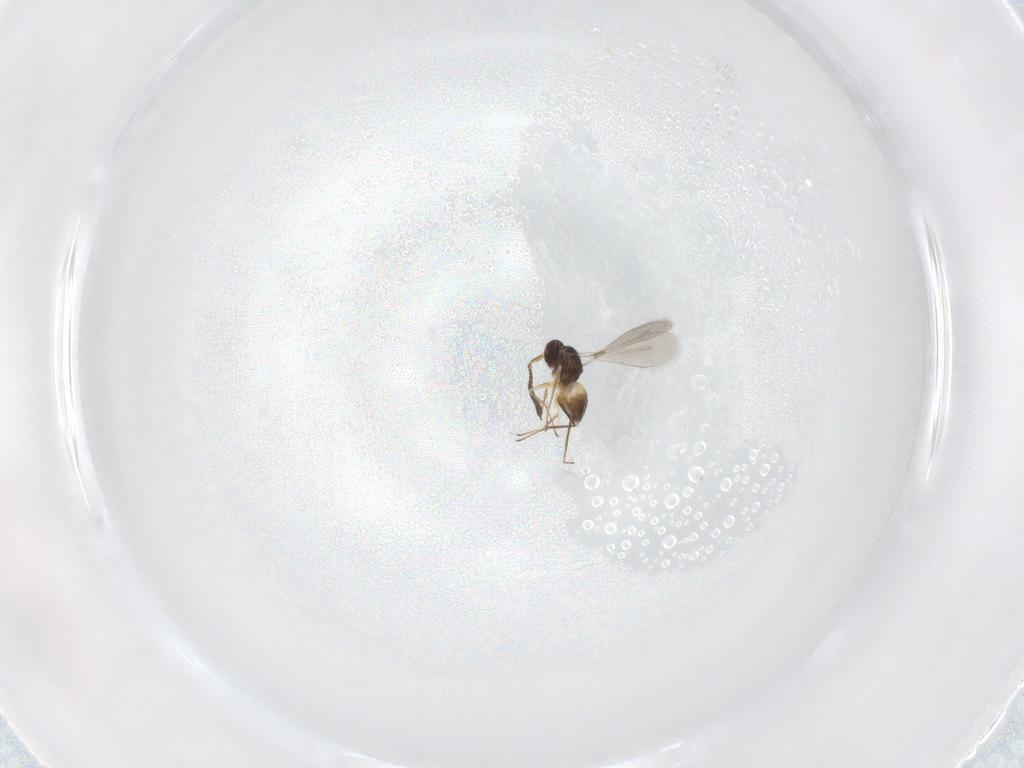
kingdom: Animalia
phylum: Arthropoda
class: Insecta
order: Hymenoptera
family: Mymaridae
